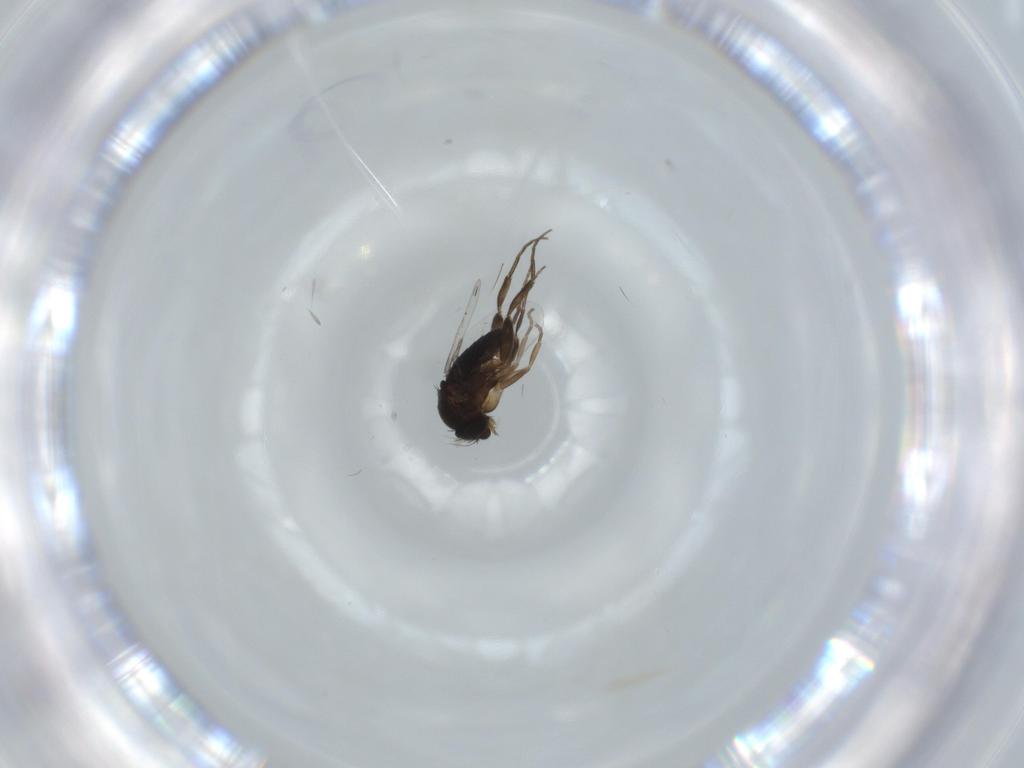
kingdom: Animalia
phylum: Arthropoda
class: Insecta
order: Diptera
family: Phoridae
